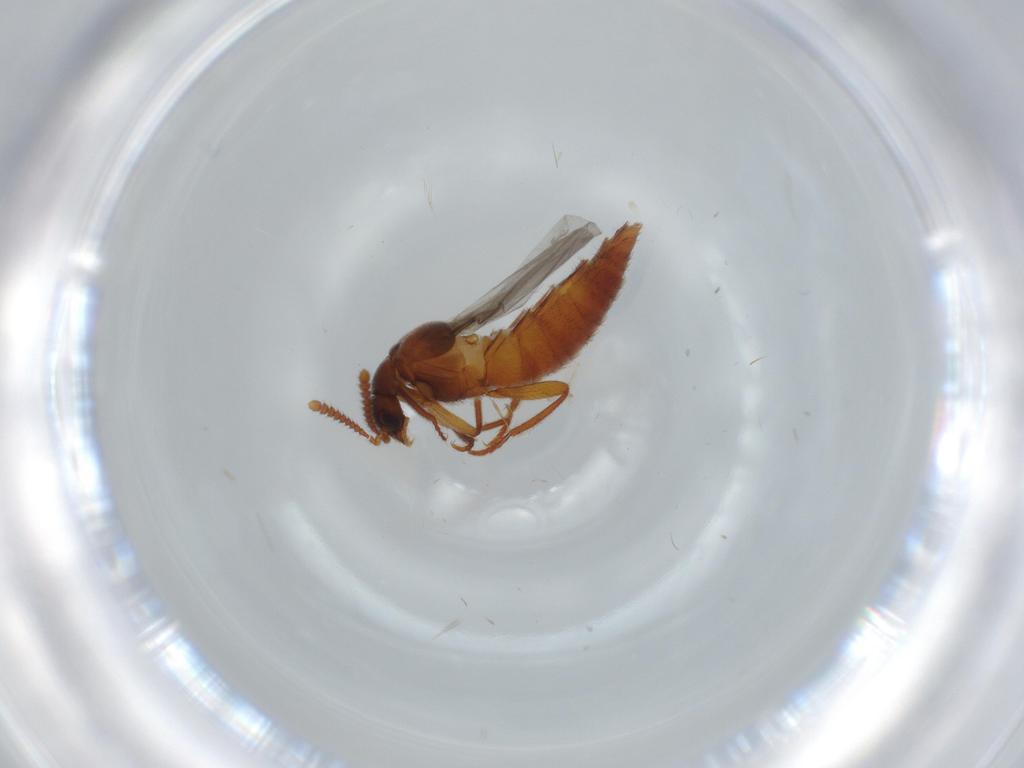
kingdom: Animalia
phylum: Arthropoda
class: Insecta
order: Coleoptera
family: Staphylinidae
